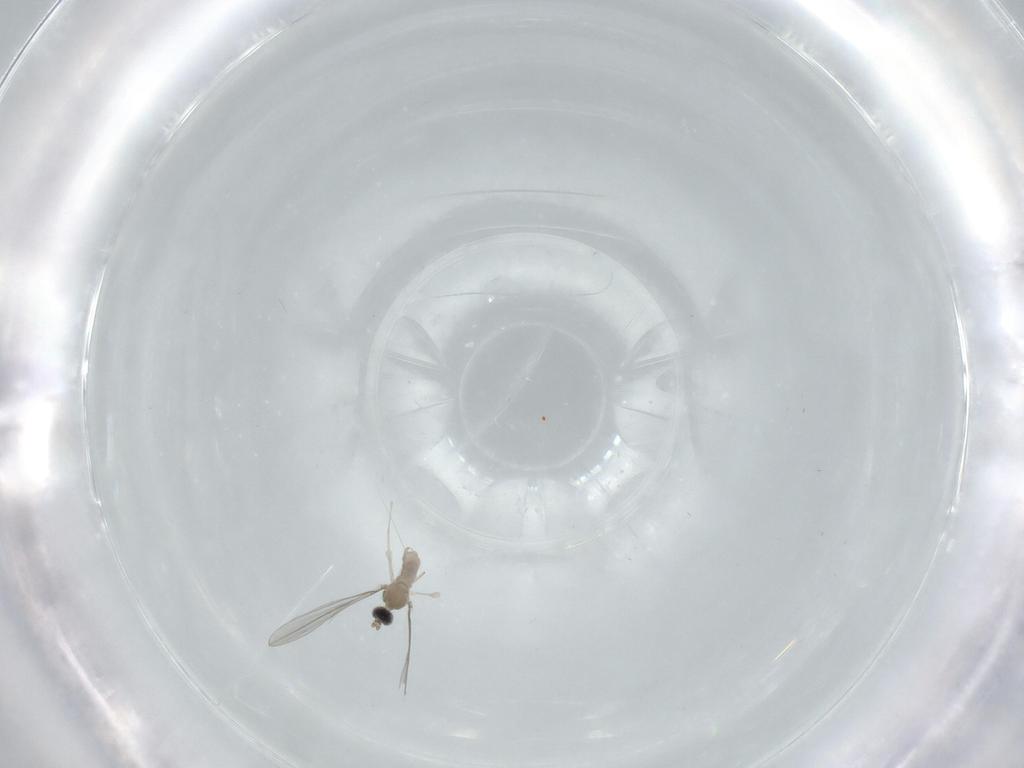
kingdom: Animalia
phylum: Arthropoda
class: Insecta
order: Diptera
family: Cecidomyiidae
